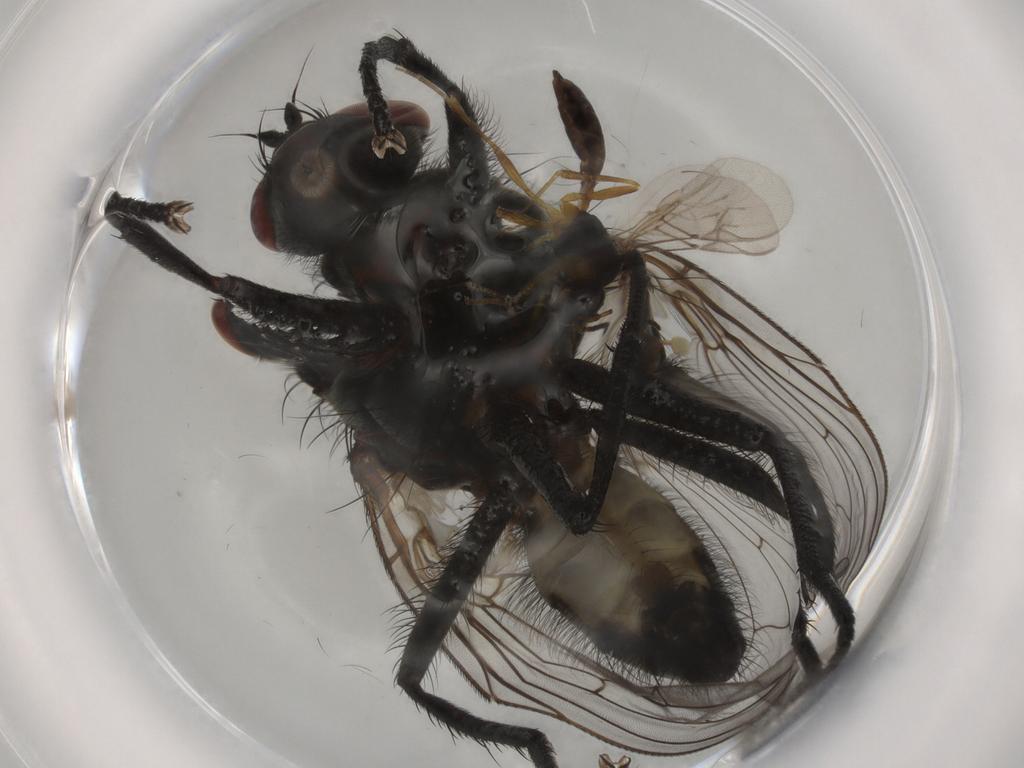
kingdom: Animalia
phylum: Arthropoda
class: Insecta
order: Diptera
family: Anthomyiidae
